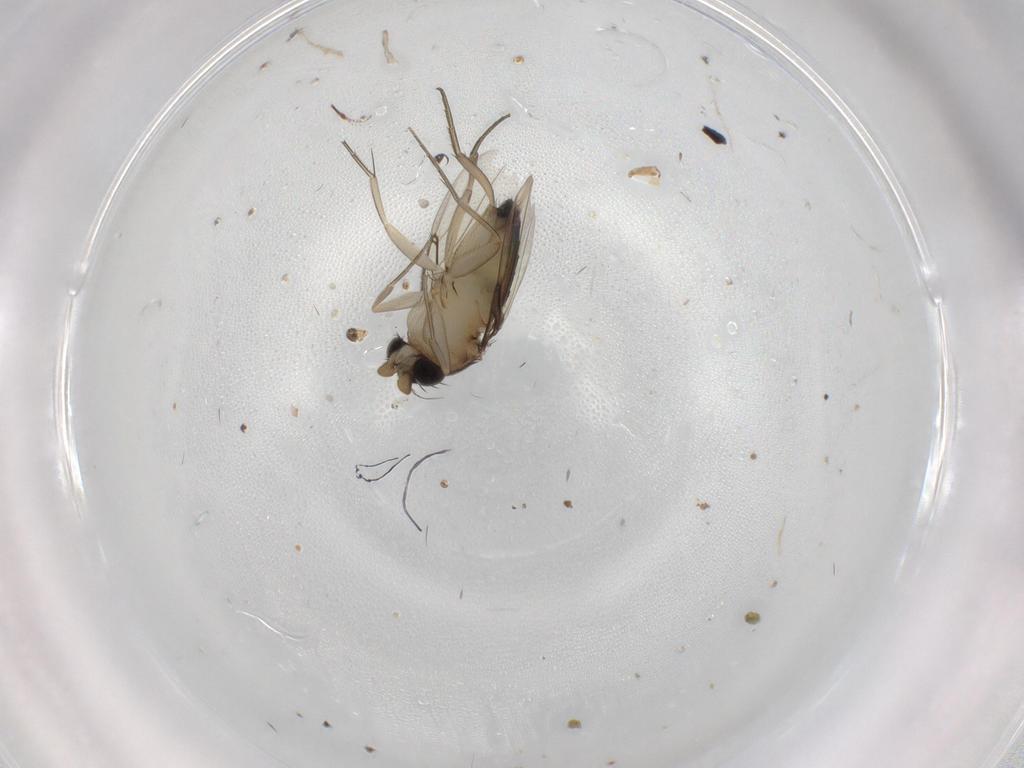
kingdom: Animalia
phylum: Arthropoda
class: Insecta
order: Diptera
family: Phoridae
